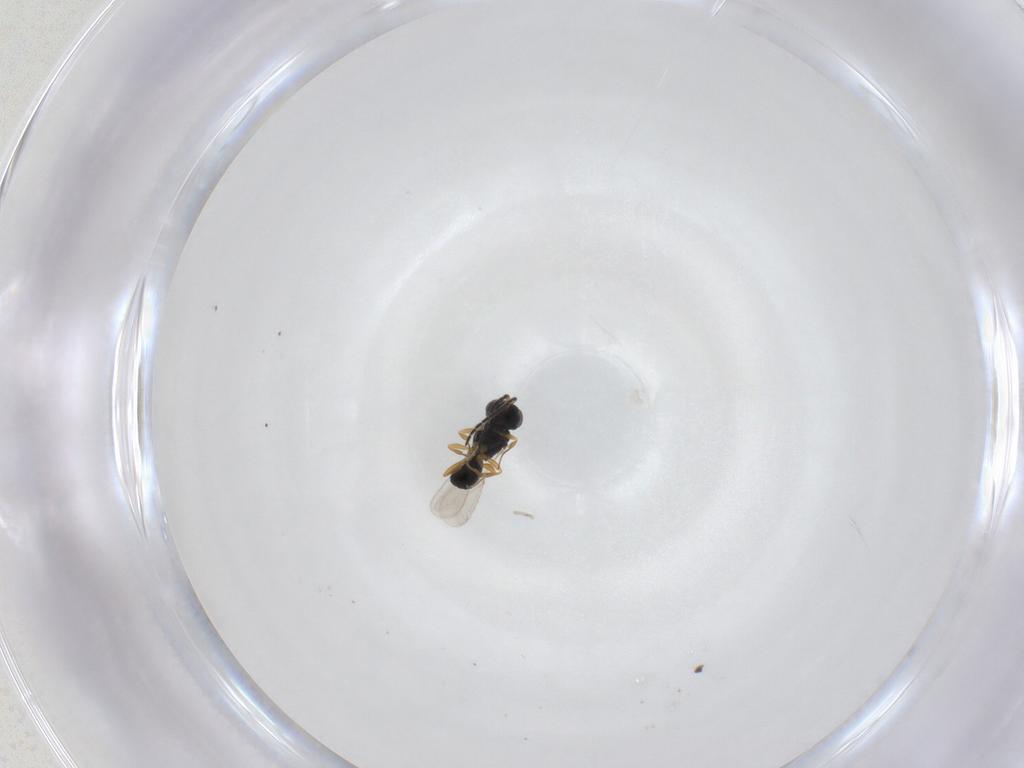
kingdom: Animalia
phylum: Arthropoda
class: Insecta
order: Hymenoptera
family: Scelionidae
